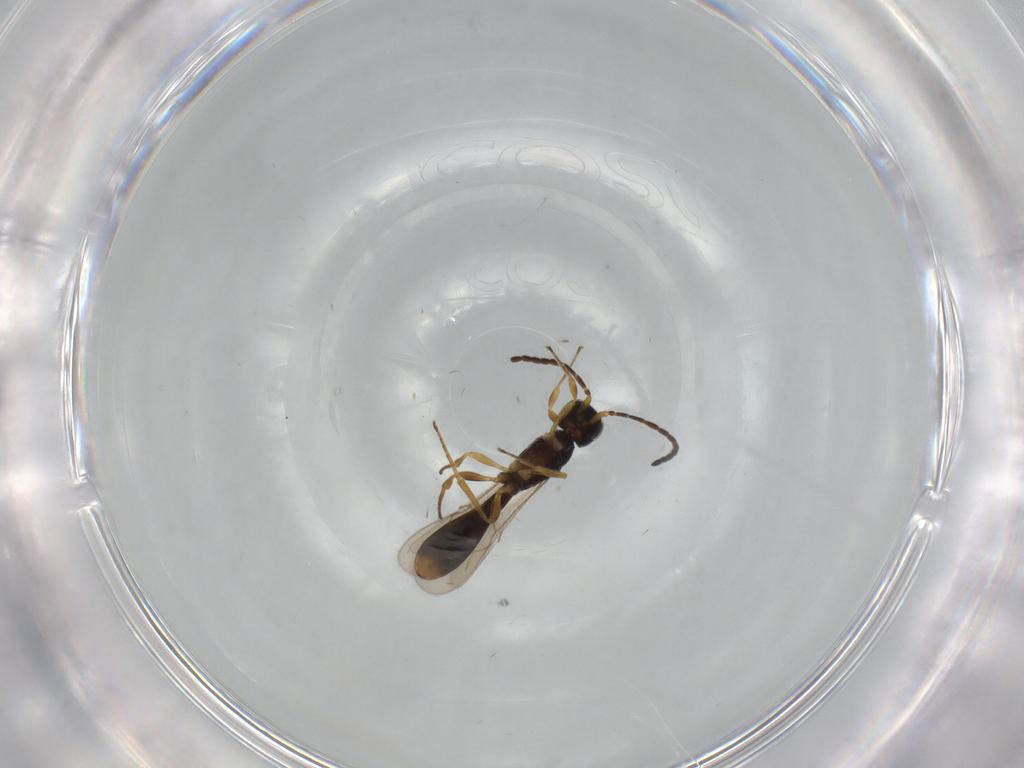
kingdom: Animalia
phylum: Arthropoda
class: Insecta
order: Hymenoptera
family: Scelionidae
